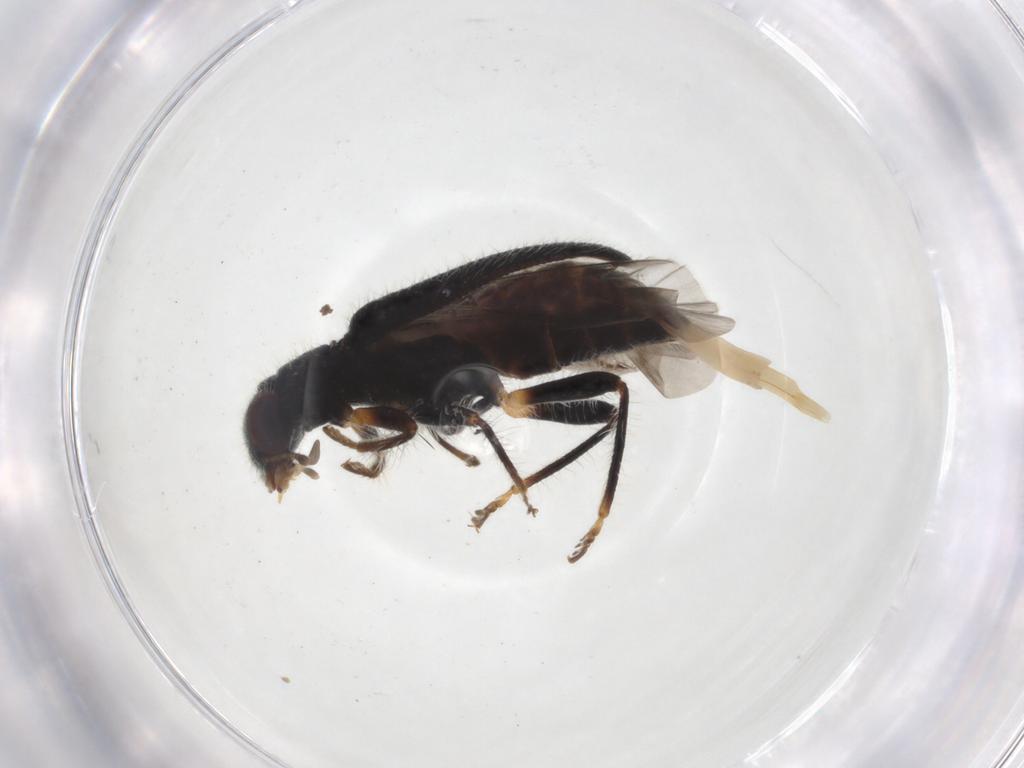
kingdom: Animalia
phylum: Arthropoda
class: Insecta
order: Coleoptera
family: Cleridae
